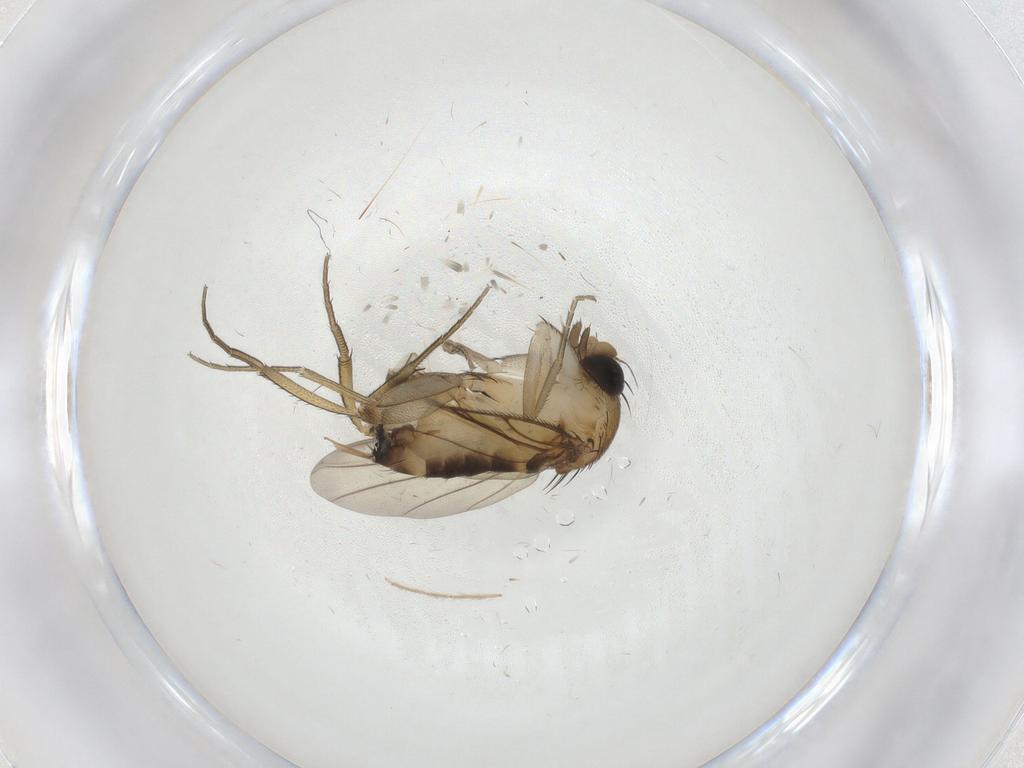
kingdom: Animalia
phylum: Arthropoda
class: Insecta
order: Diptera
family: Phoridae
